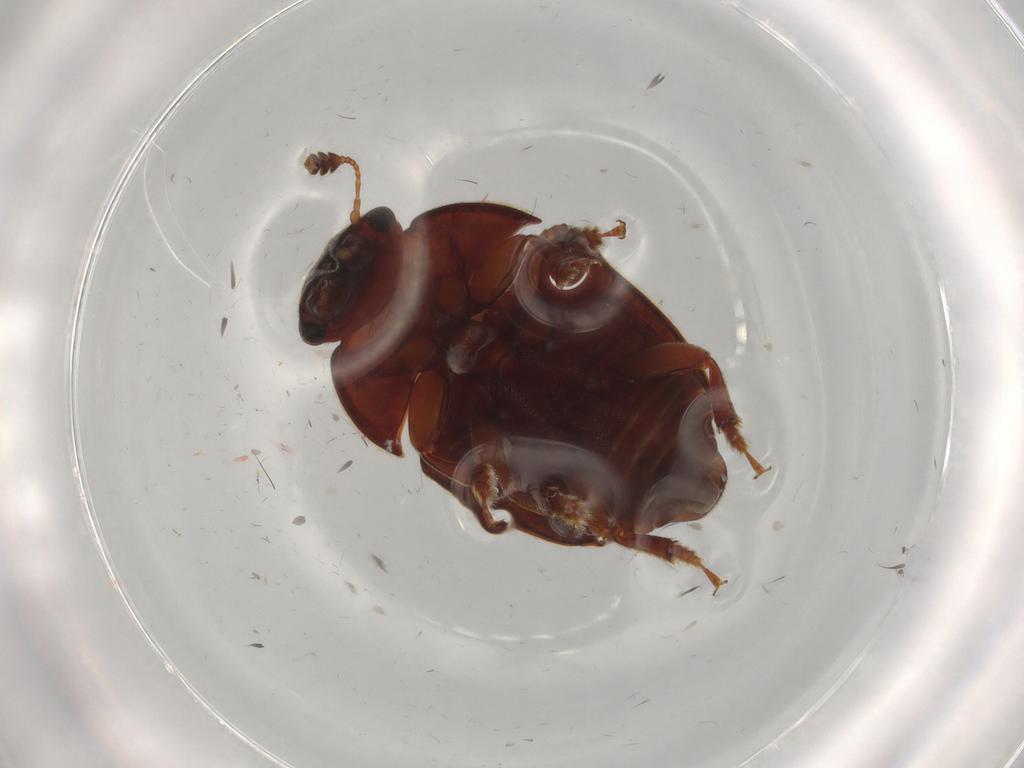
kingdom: Animalia
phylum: Arthropoda
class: Insecta
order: Coleoptera
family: Nitidulidae
